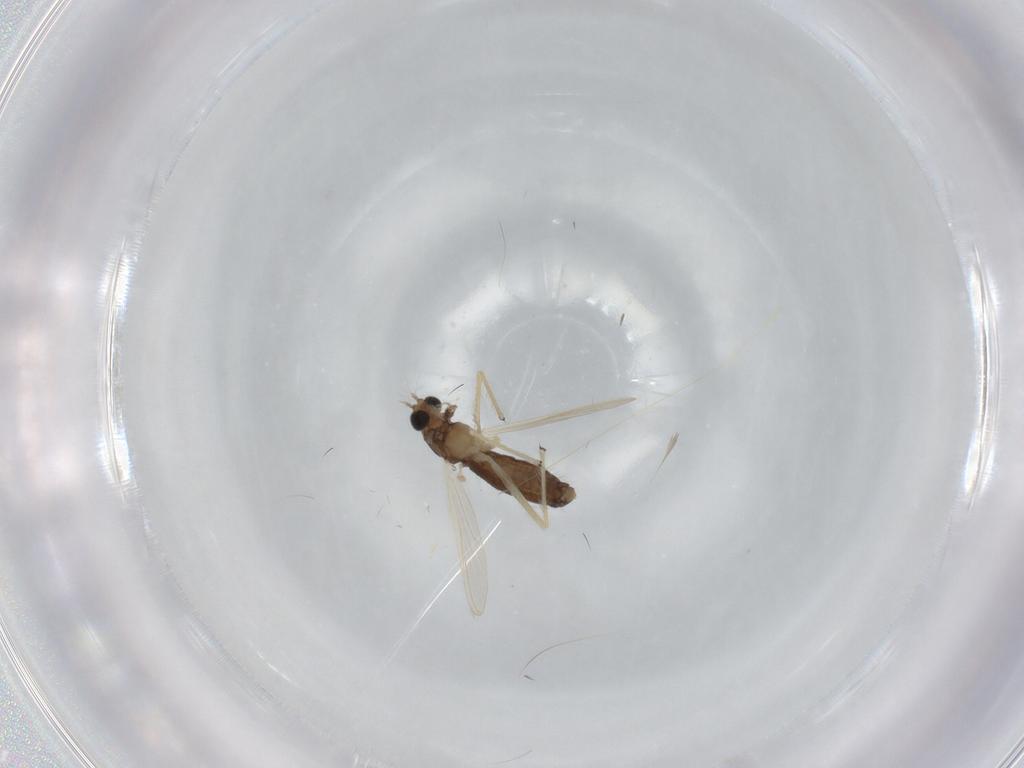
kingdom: Animalia
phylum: Arthropoda
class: Insecta
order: Diptera
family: Chironomidae
